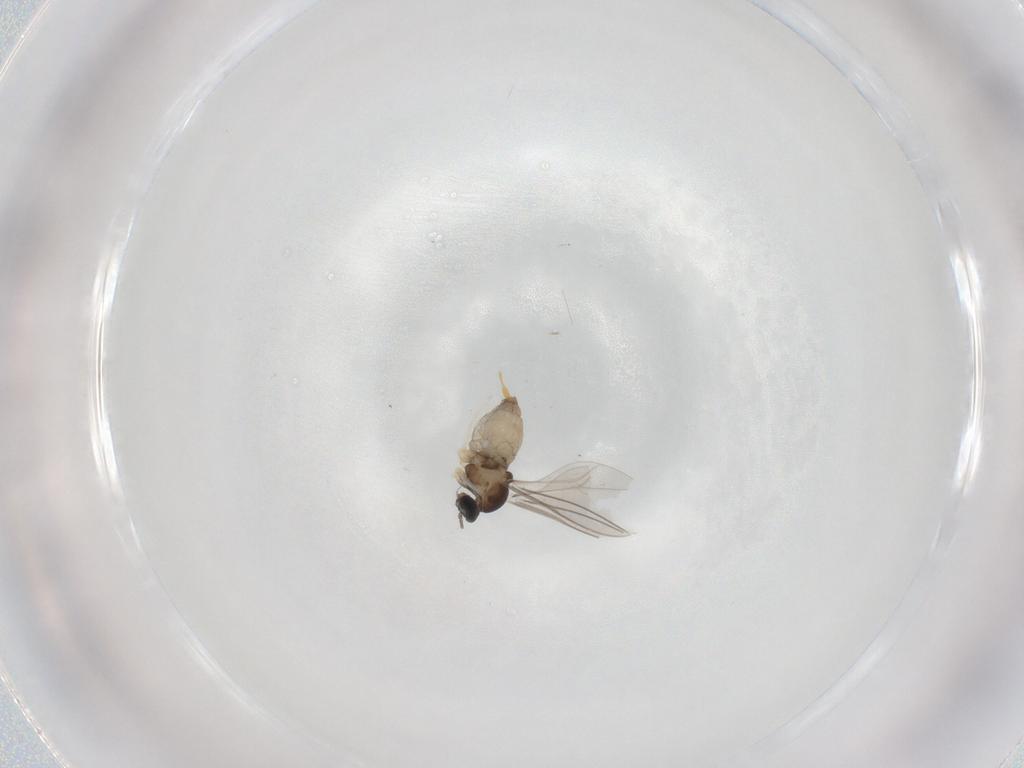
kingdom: Animalia
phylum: Arthropoda
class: Insecta
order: Diptera
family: Cecidomyiidae
